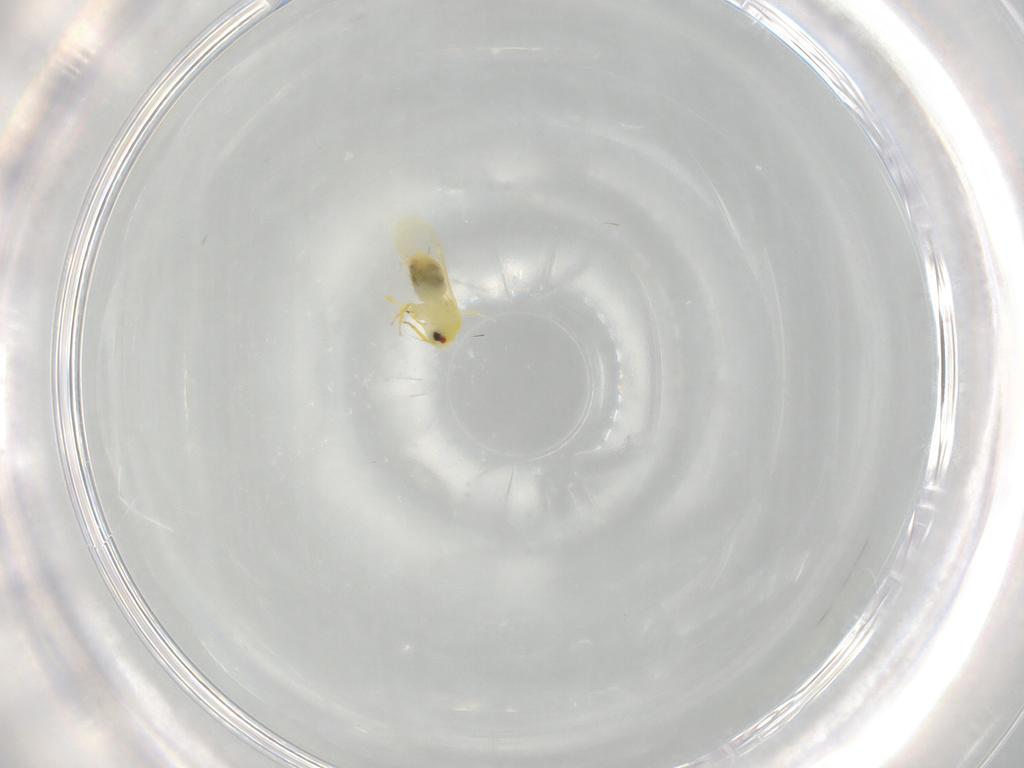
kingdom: Animalia
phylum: Arthropoda
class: Insecta
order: Hemiptera
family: Aleyrodidae
